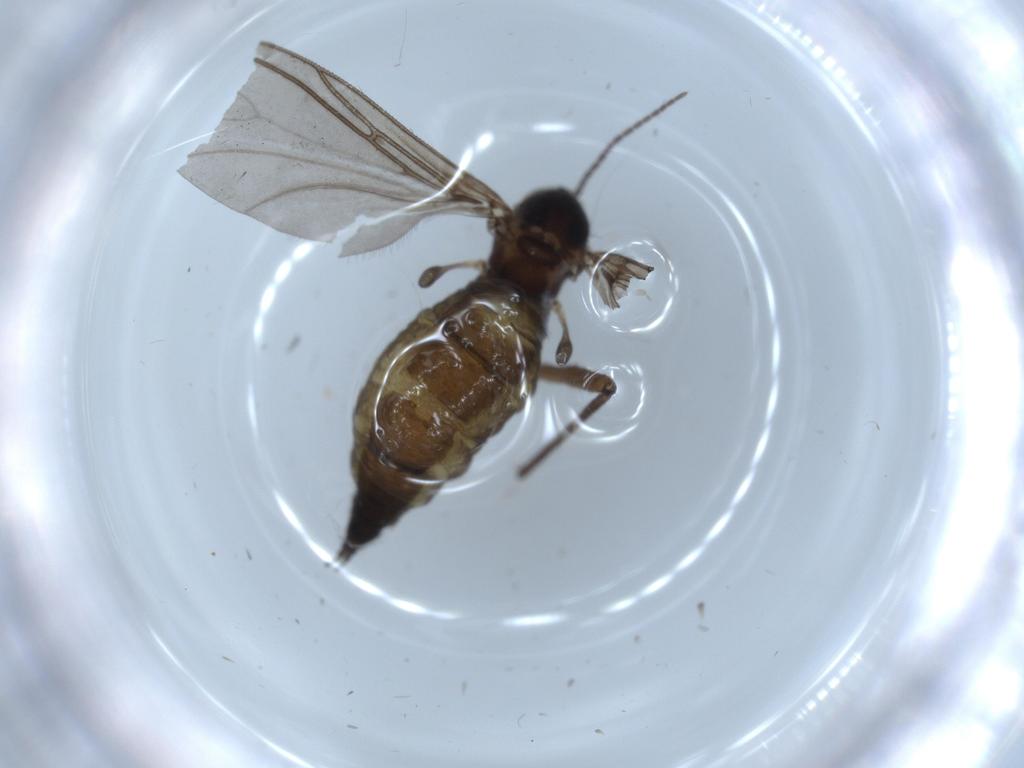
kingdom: Animalia
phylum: Arthropoda
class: Insecta
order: Diptera
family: Sciaridae
